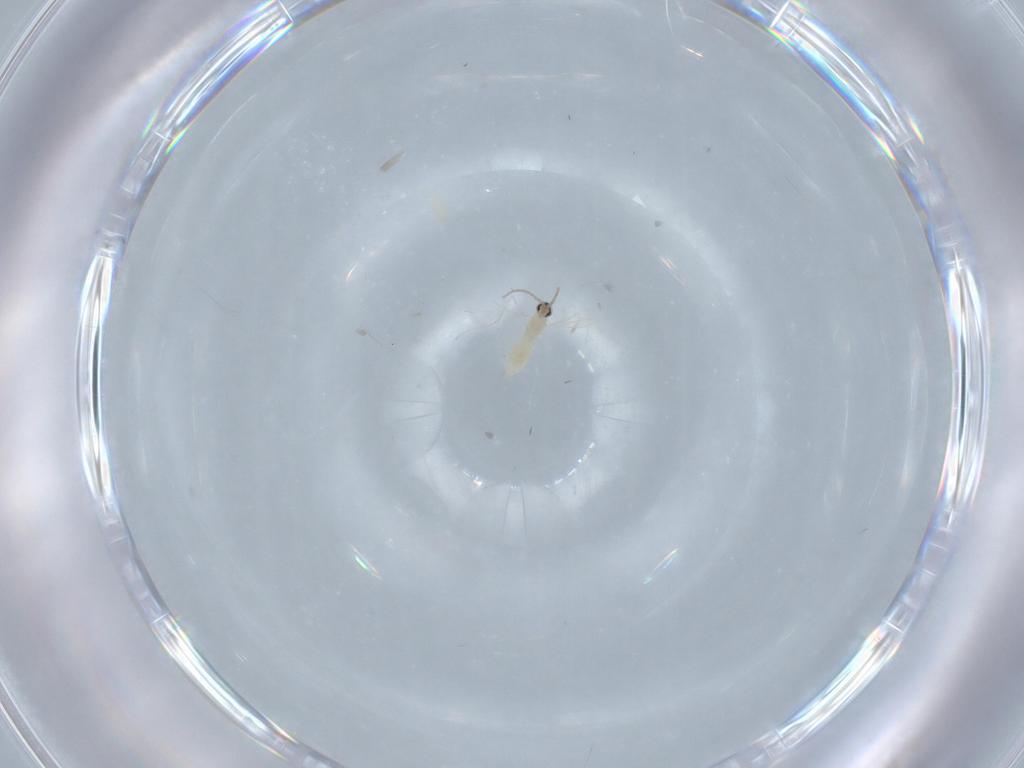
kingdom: Animalia
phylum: Arthropoda
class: Insecta
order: Diptera
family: Cecidomyiidae
